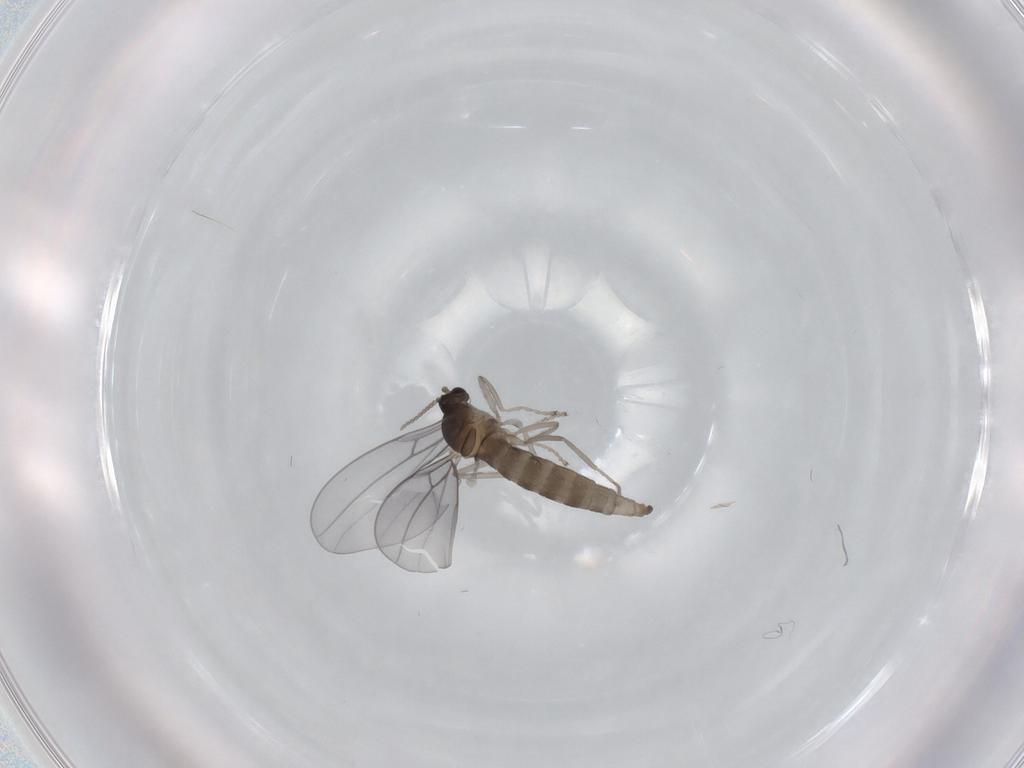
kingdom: Animalia
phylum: Arthropoda
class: Insecta
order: Diptera
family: Cecidomyiidae
